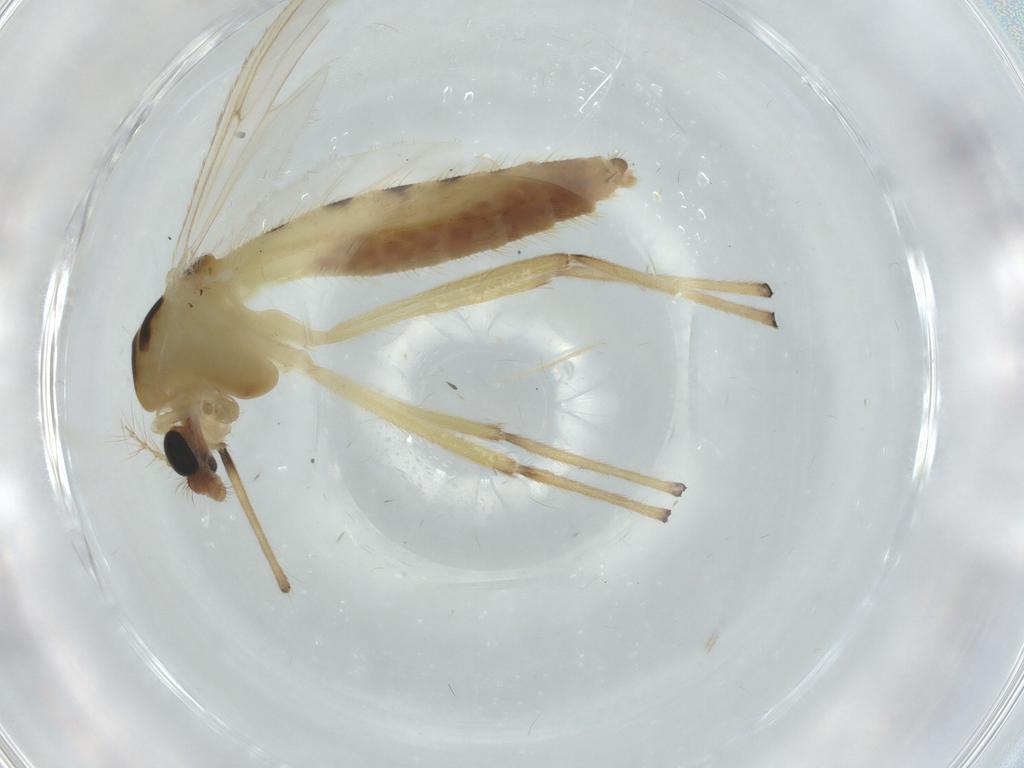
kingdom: Animalia
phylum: Arthropoda
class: Insecta
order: Diptera
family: Chironomidae
